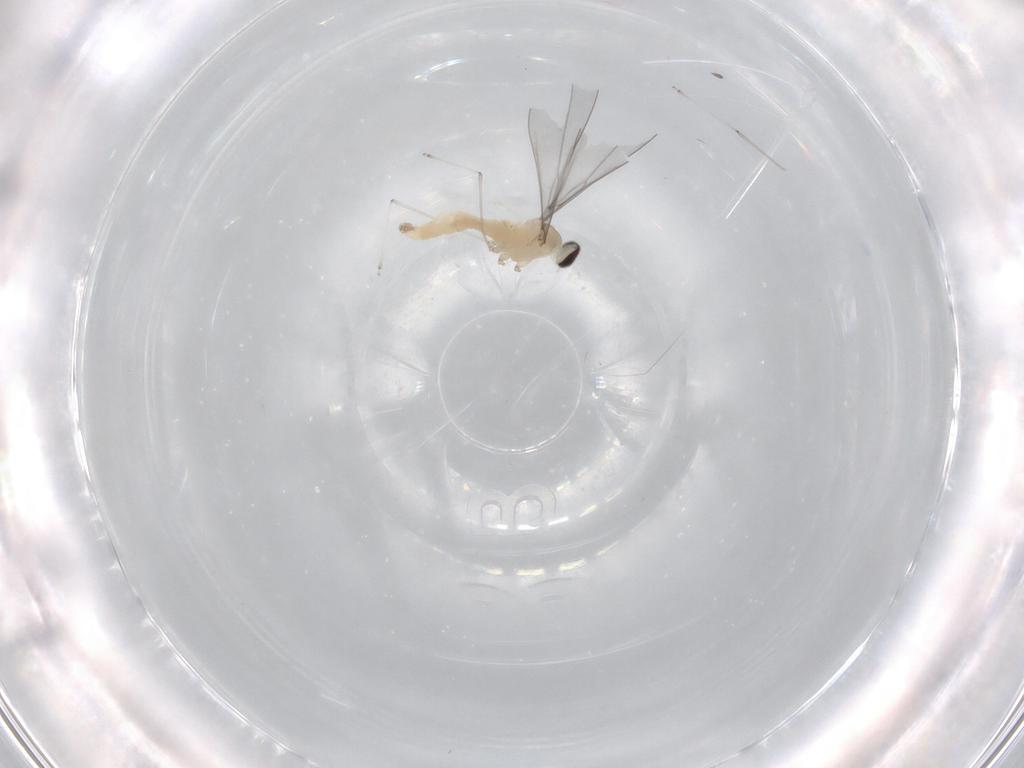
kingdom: Animalia
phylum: Arthropoda
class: Insecta
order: Diptera
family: Cecidomyiidae
